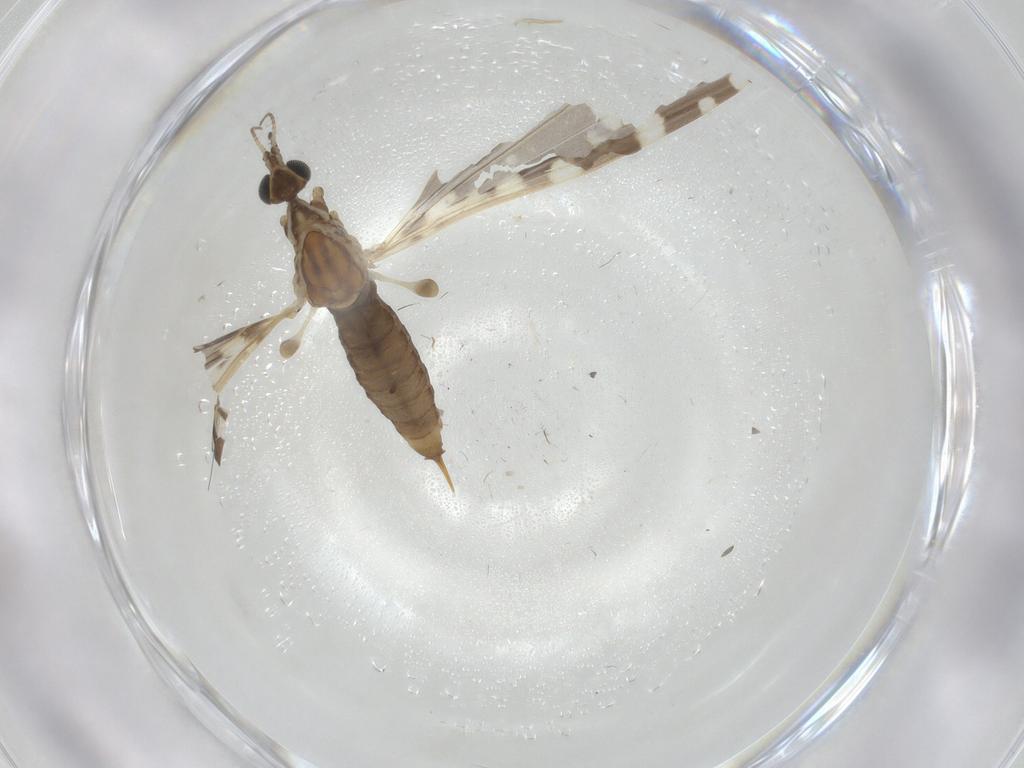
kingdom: Animalia
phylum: Arthropoda
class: Insecta
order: Diptera
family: Limoniidae
